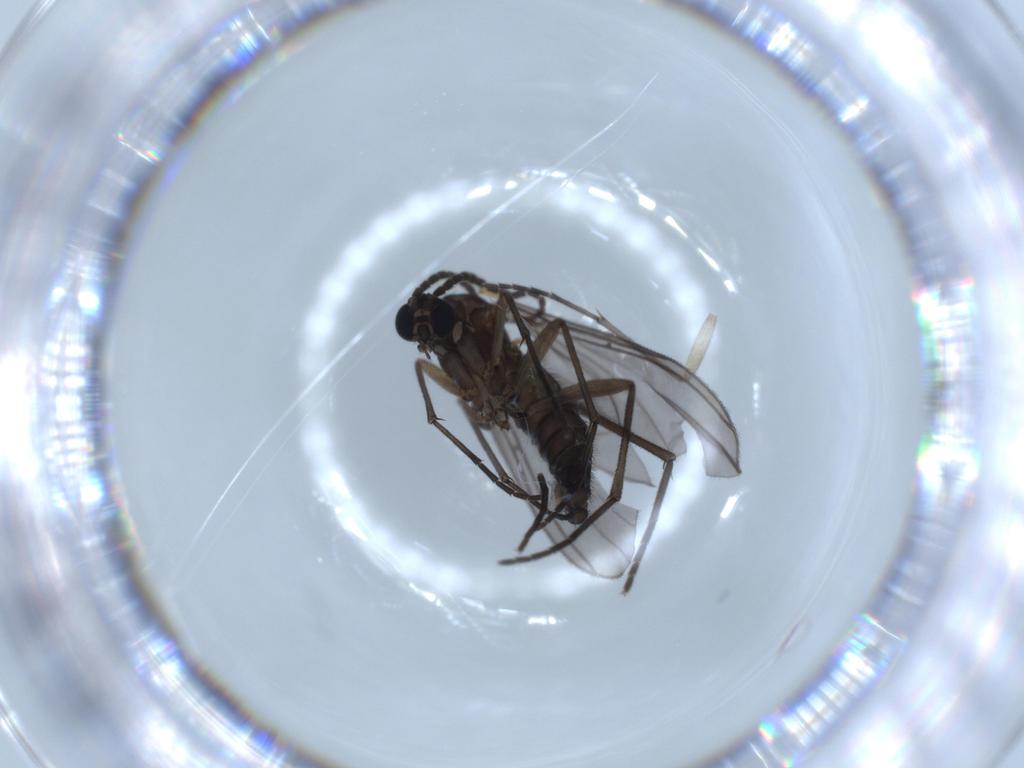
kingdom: Animalia
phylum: Arthropoda
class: Insecta
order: Diptera
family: Sciaridae
